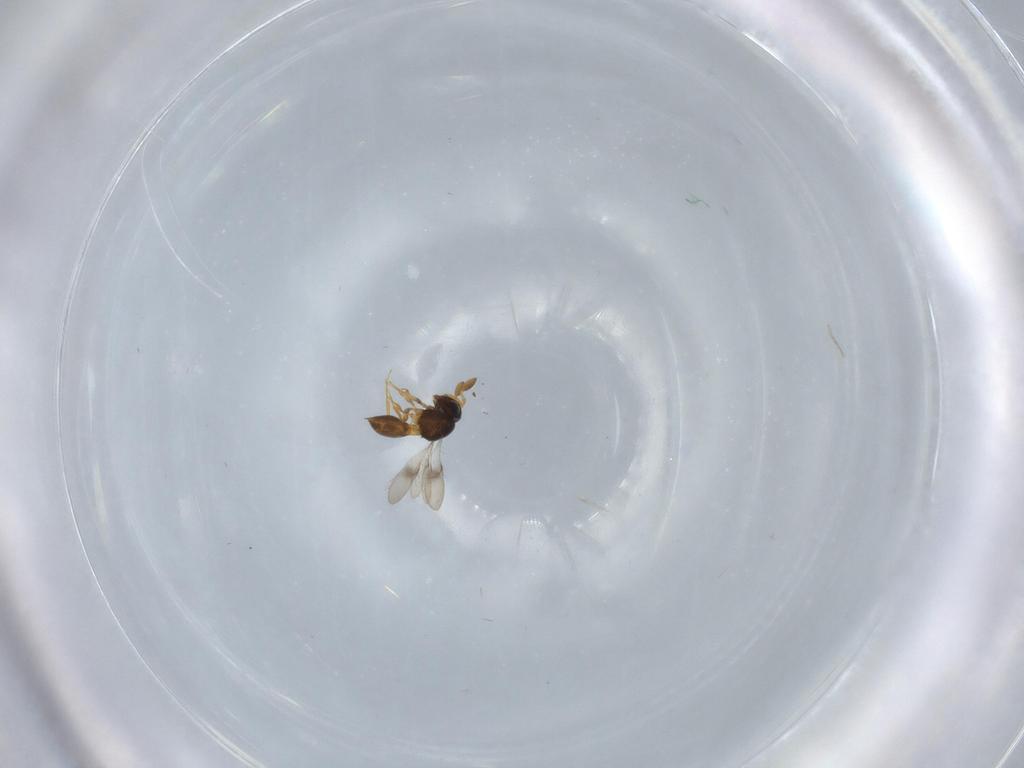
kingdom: Animalia
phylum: Arthropoda
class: Insecta
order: Hymenoptera
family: Scelionidae
